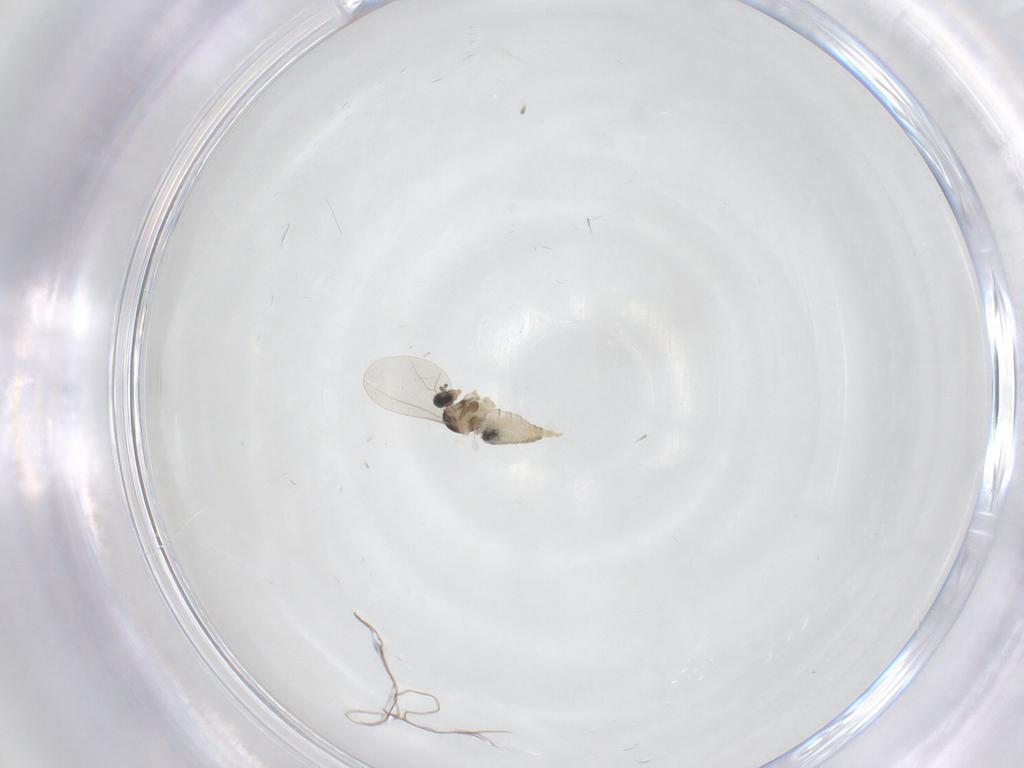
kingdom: Animalia
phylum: Arthropoda
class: Insecta
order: Diptera
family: Cecidomyiidae
